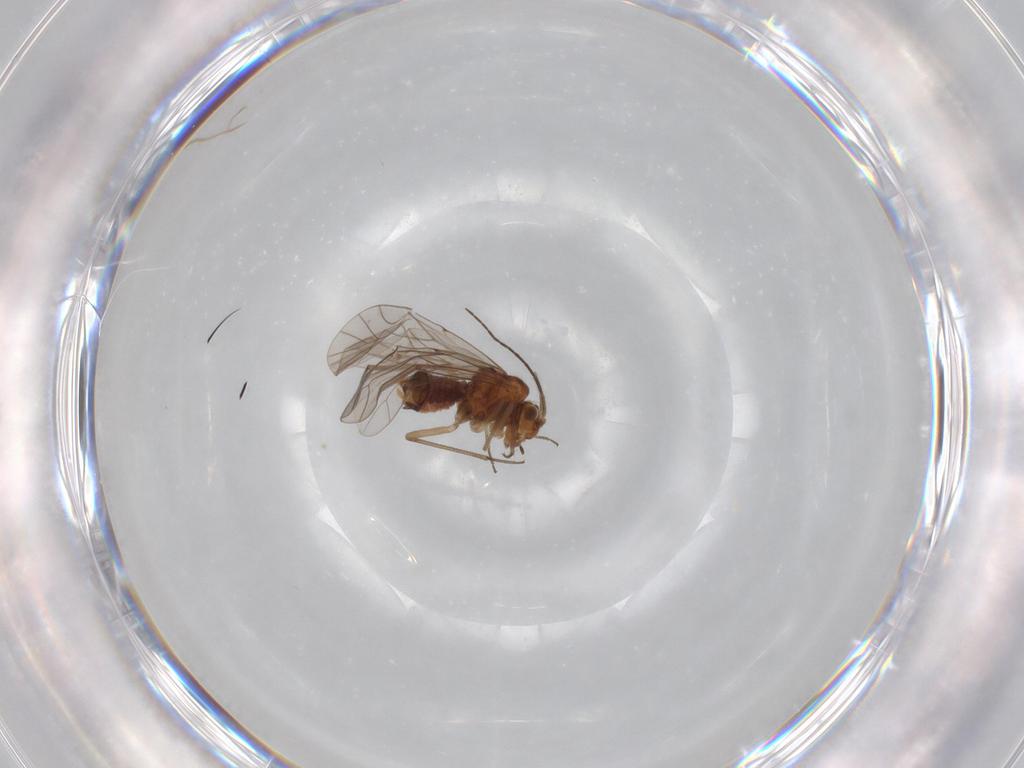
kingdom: Animalia
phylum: Arthropoda
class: Insecta
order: Psocodea
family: Lachesillidae
